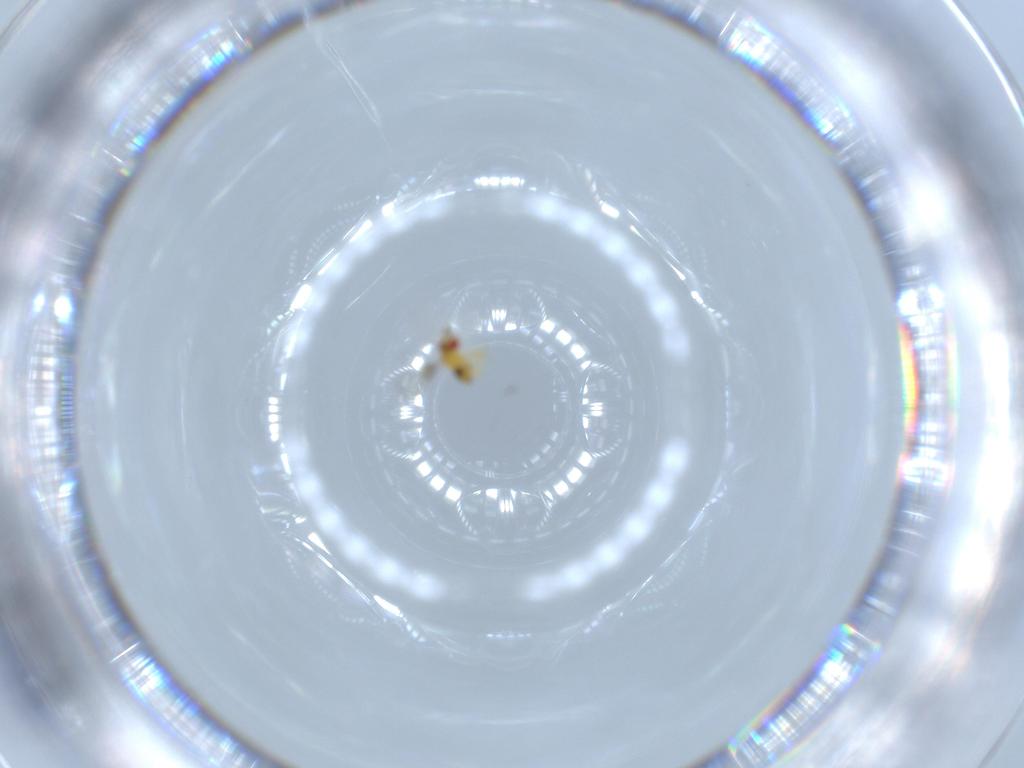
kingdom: Animalia
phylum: Arthropoda
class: Insecta
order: Hymenoptera
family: Trichogrammatidae
